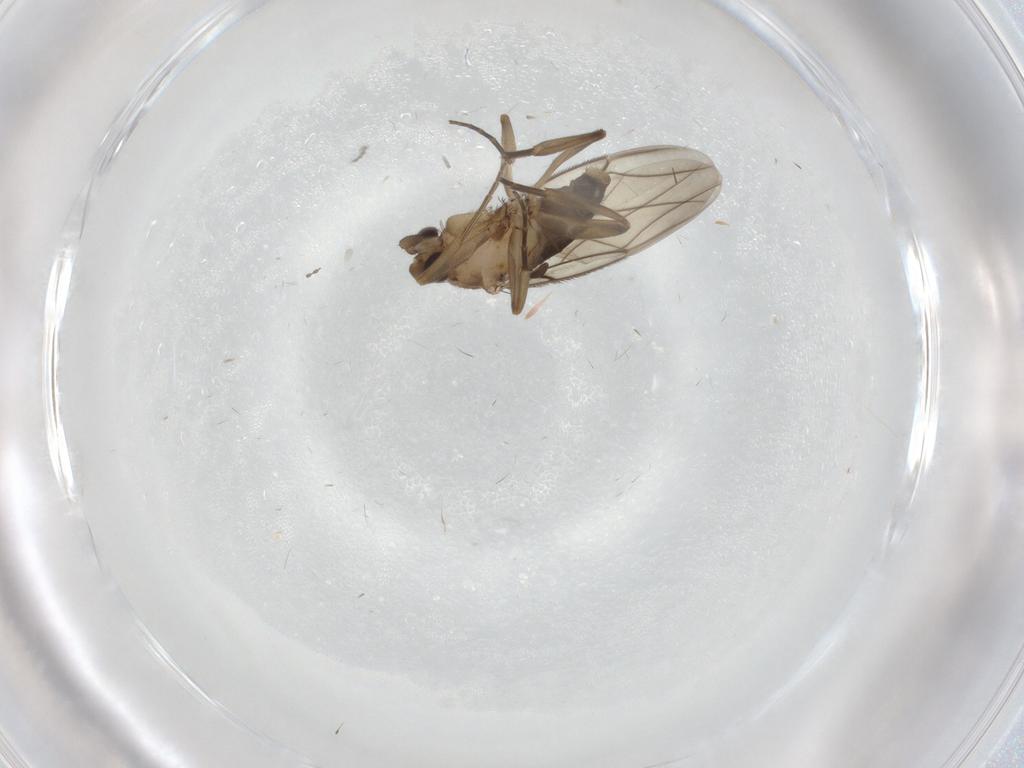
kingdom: Animalia
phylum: Arthropoda
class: Insecta
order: Diptera
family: Phoridae
